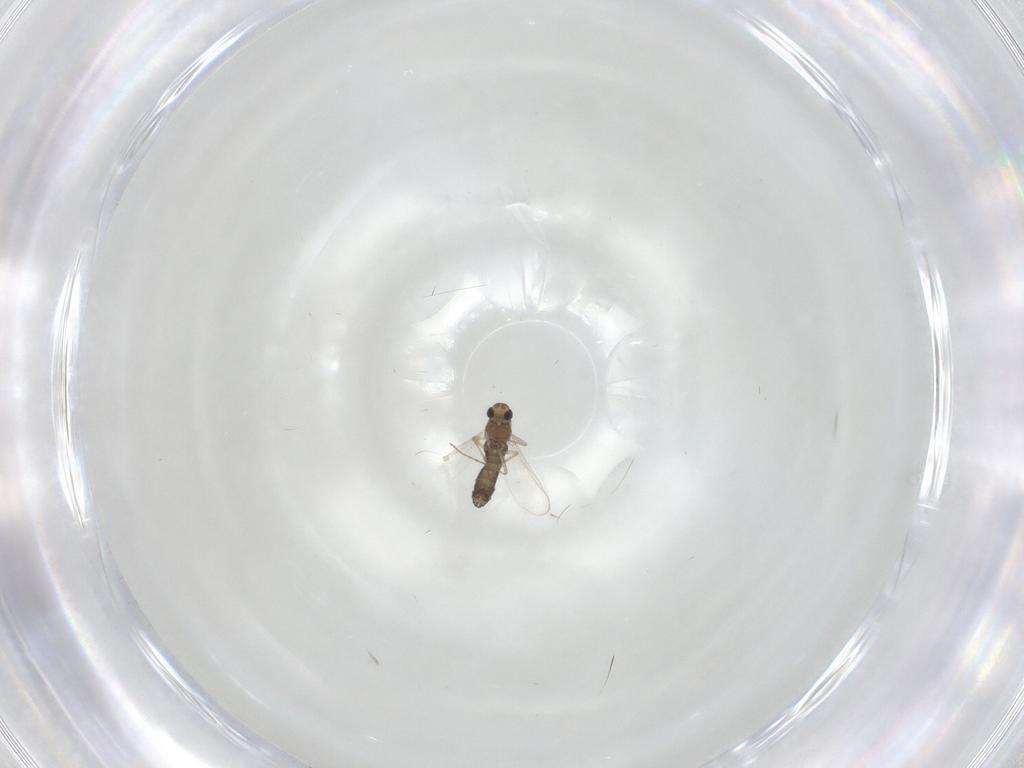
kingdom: Animalia
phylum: Arthropoda
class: Insecta
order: Diptera
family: Chironomidae
